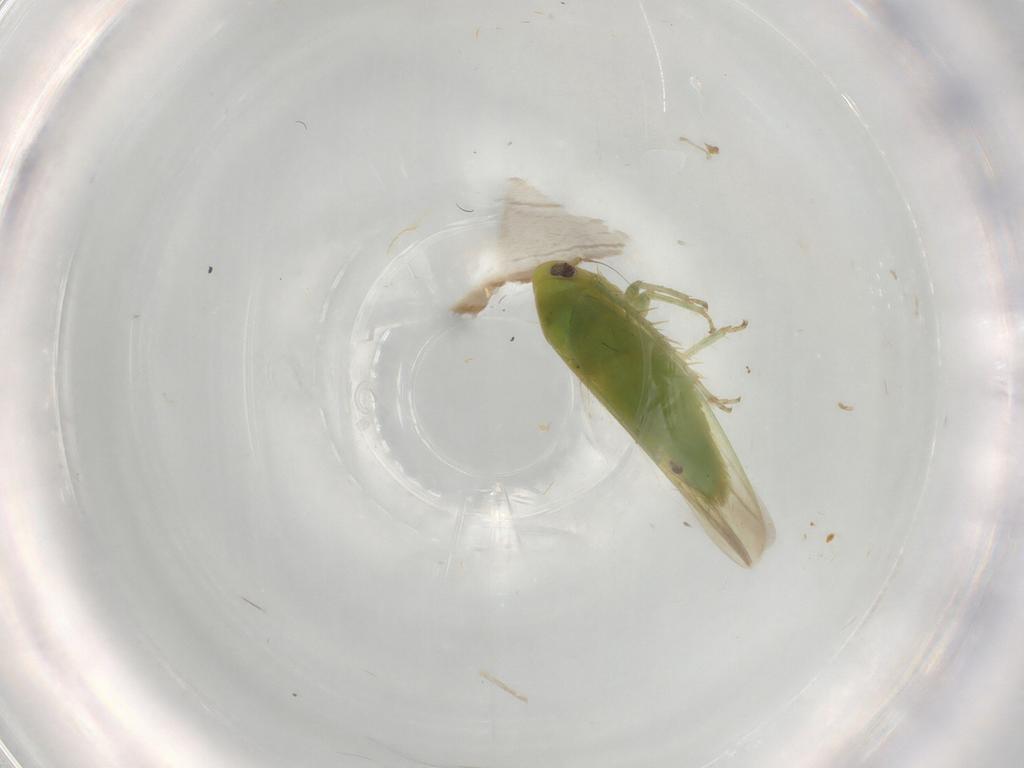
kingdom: Animalia
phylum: Arthropoda
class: Insecta
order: Hemiptera
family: Cicadellidae
